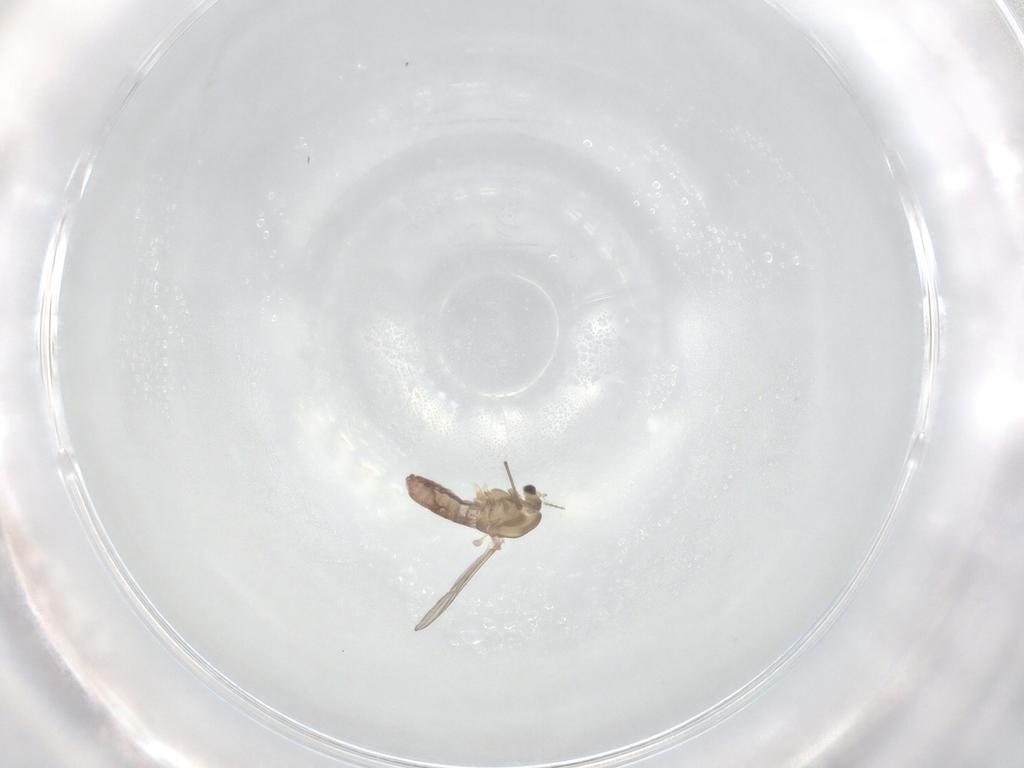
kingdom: Animalia
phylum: Arthropoda
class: Insecta
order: Diptera
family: Chironomidae
